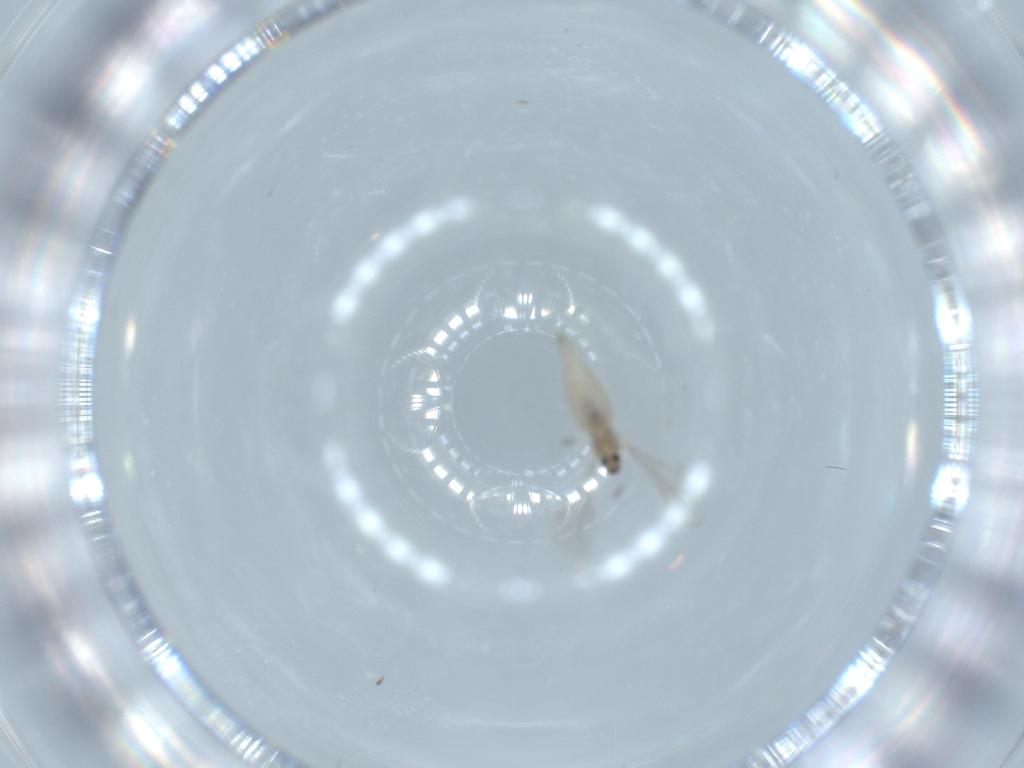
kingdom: Animalia
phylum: Arthropoda
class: Insecta
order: Diptera
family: Cecidomyiidae
